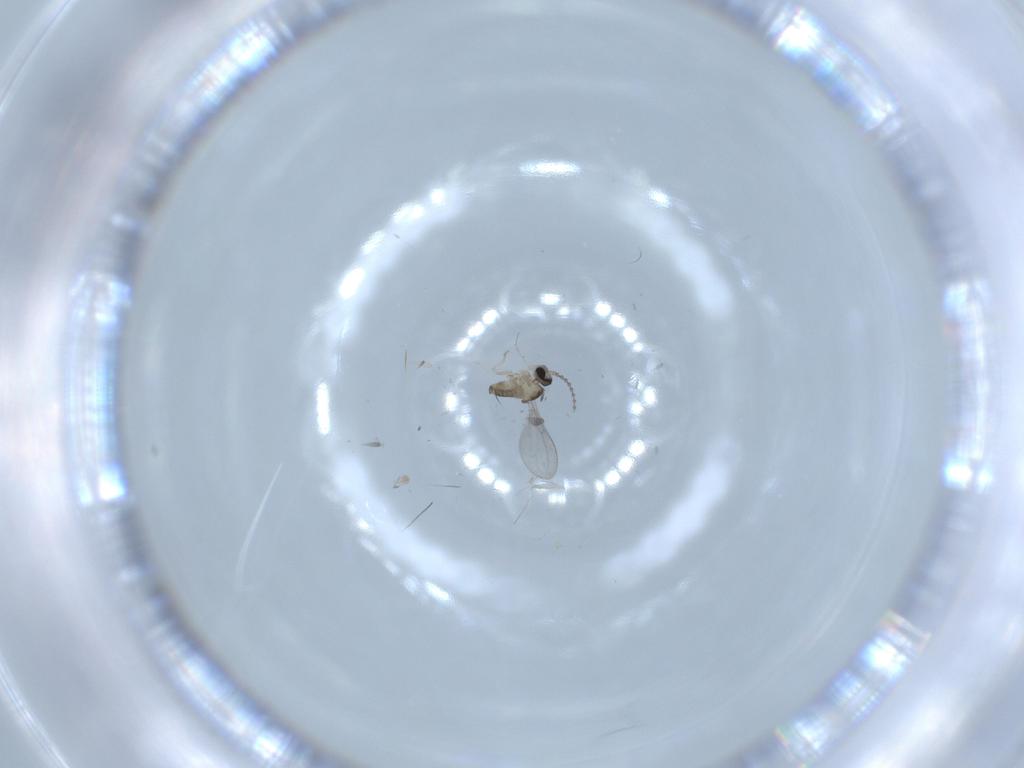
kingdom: Animalia
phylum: Arthropoda
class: Insecta
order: Diptera
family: Cecidomyiidae
